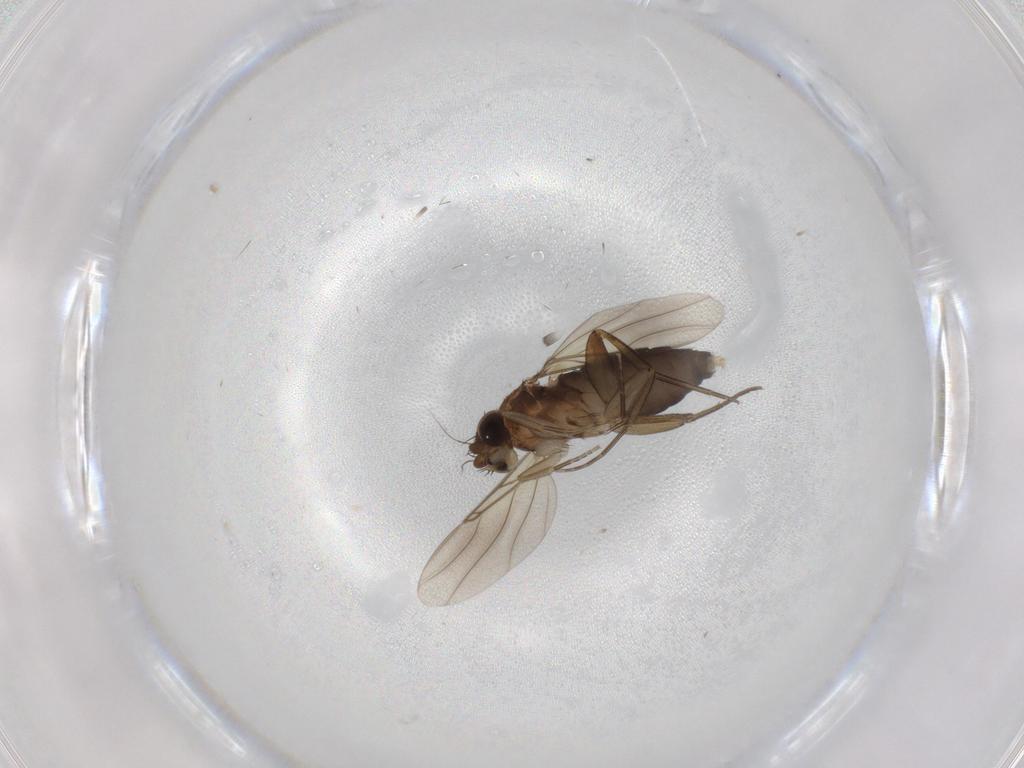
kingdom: Animalia
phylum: Arthropoda
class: Insecta
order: Diptera
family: Phoridae
